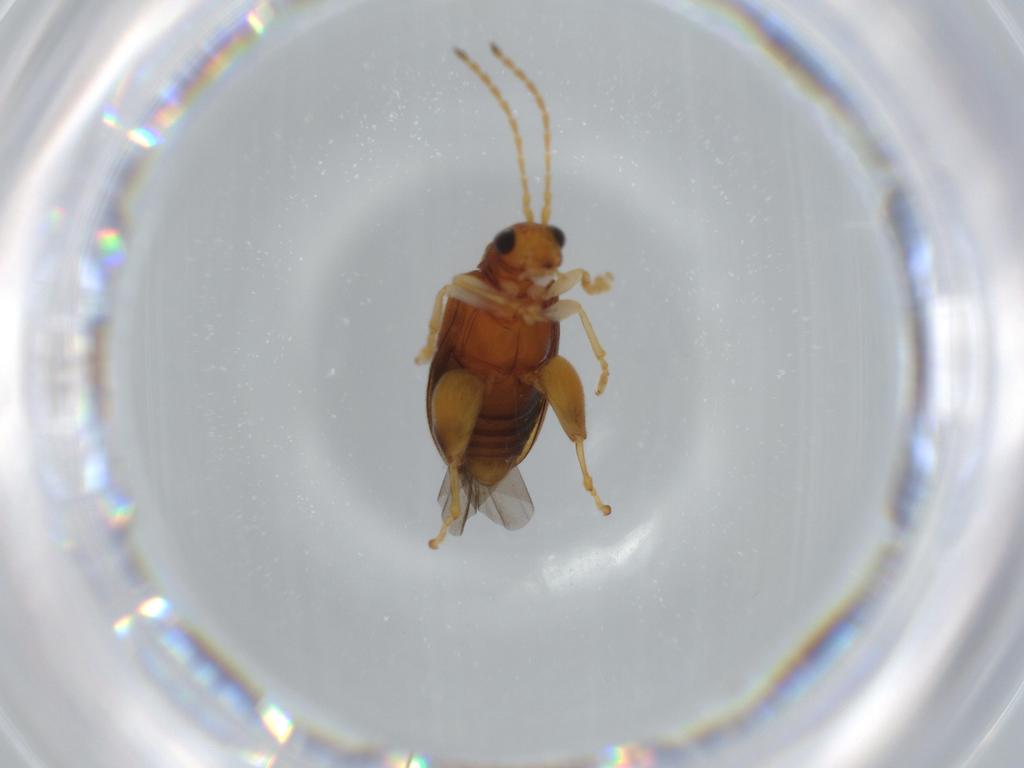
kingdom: Animalia
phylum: Arthropoda
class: Insecta
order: Coleoptera
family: Chrysomelidae
